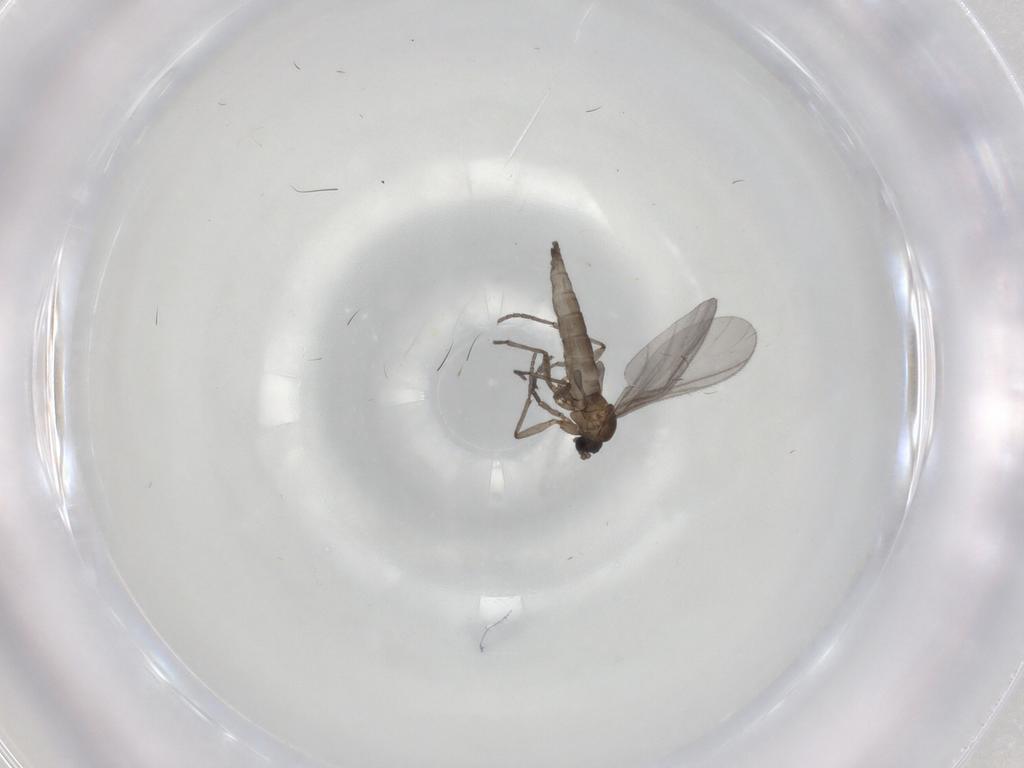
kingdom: Animalia
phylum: Arthropoda
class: Insecta
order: Diptera
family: Sciaridae
